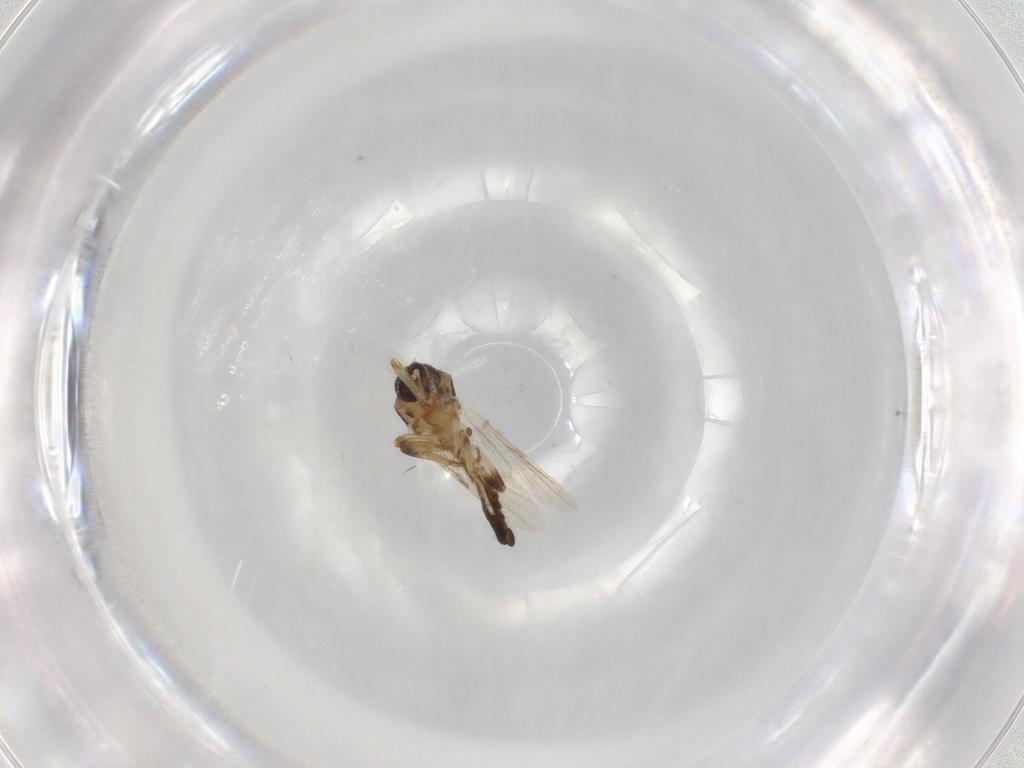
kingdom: Animalia
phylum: Arthropoda
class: Insecta
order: Diptera
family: Ceratopogonidae
